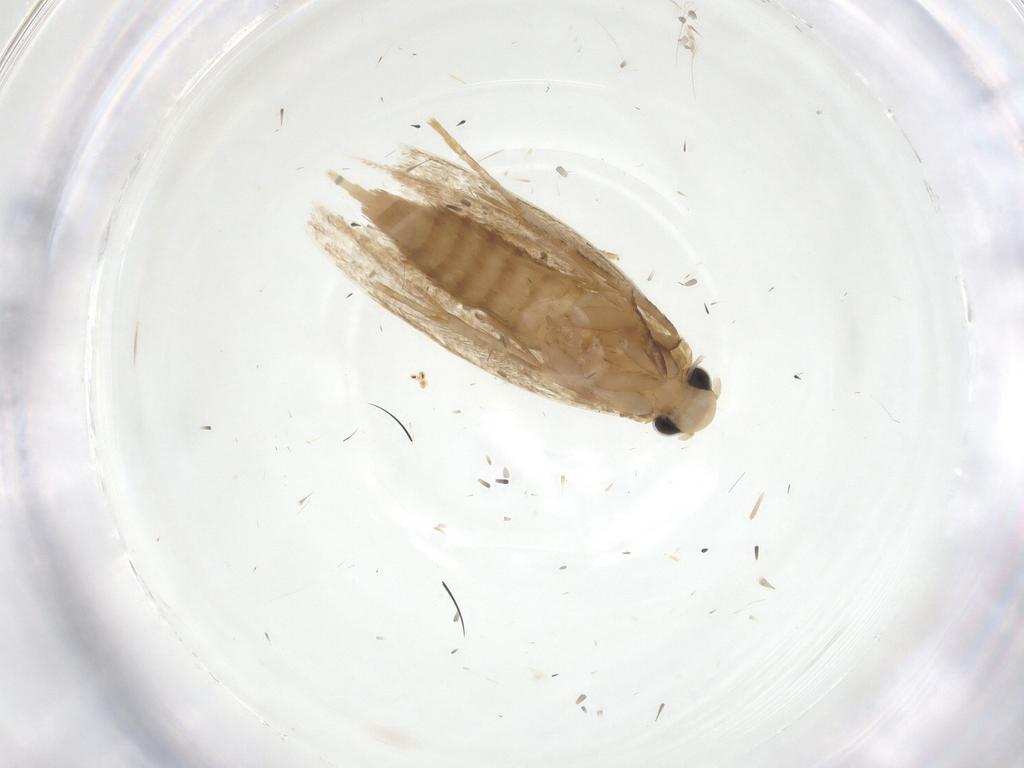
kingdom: Animalia
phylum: Arthropoda
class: Insecta
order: Lepidoptera
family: Tineidae
